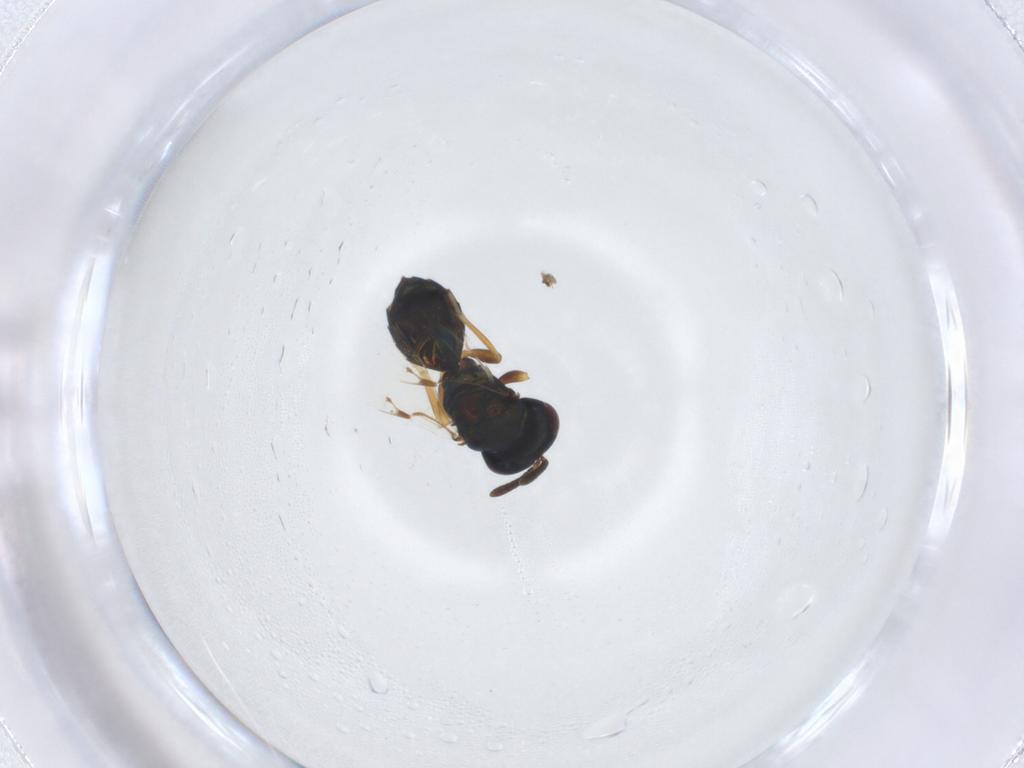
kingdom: Animalia
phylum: Arthropoda
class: Insecta
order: Hymenoptera
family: Pteromalidae
